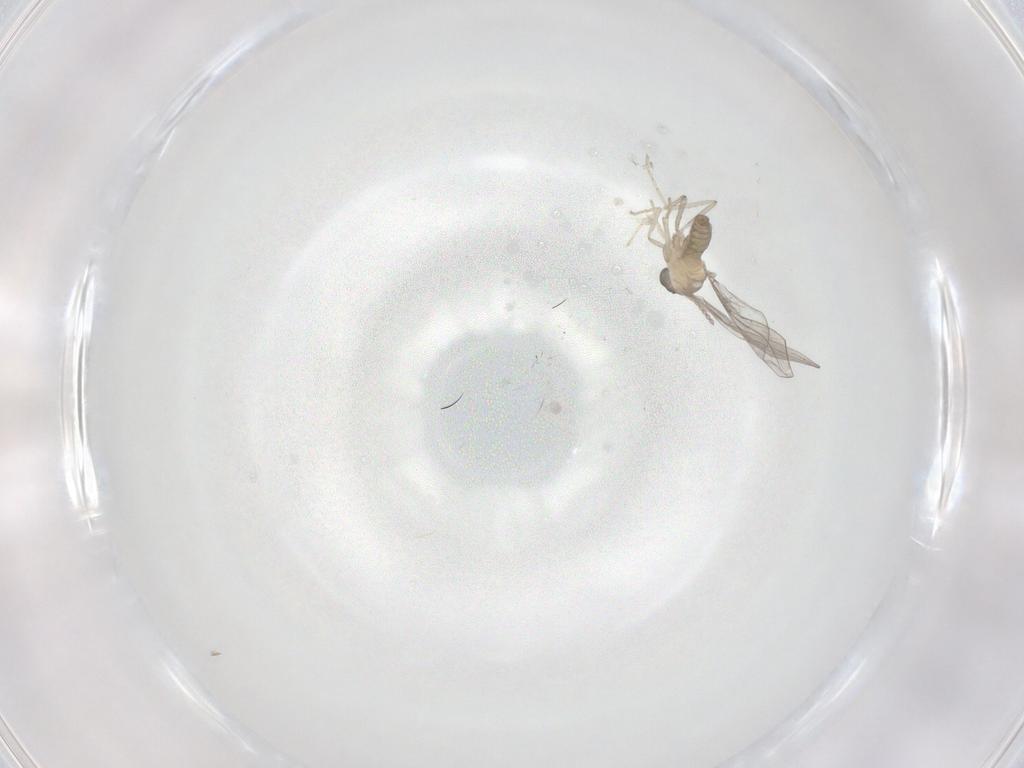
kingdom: Animalia
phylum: Arthropoda
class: Insecta
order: Diptera
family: Cecidomyiidae
